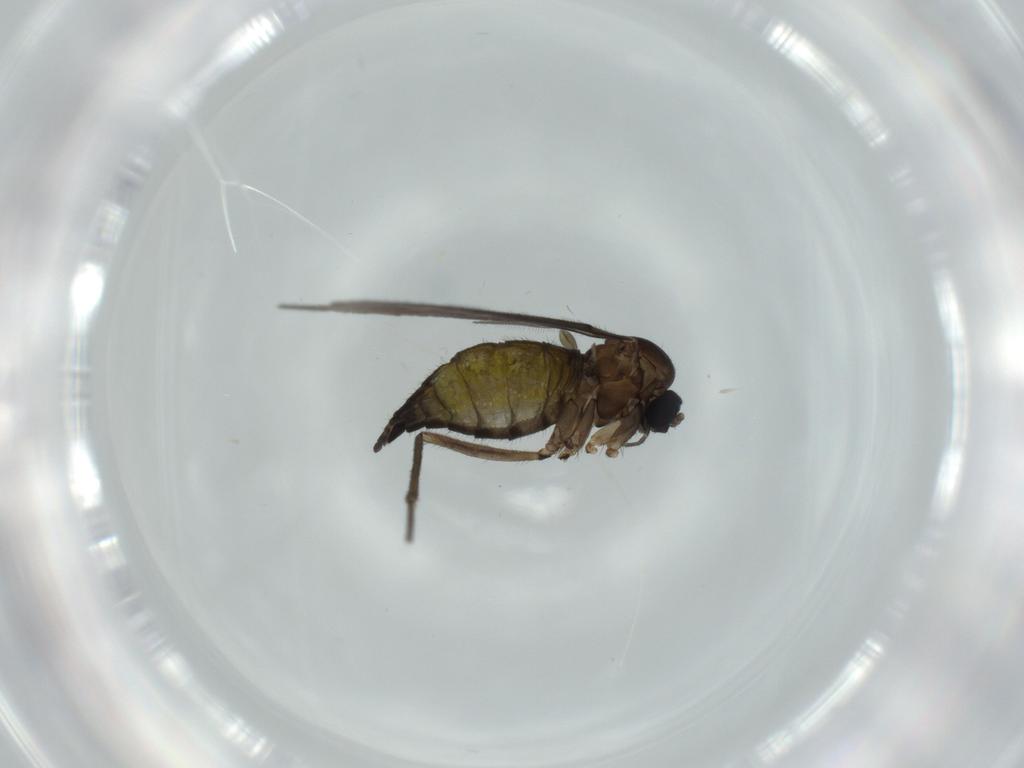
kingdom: Animalia
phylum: Arthropoda
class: Insecta
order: Diptera
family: Sciaridae
